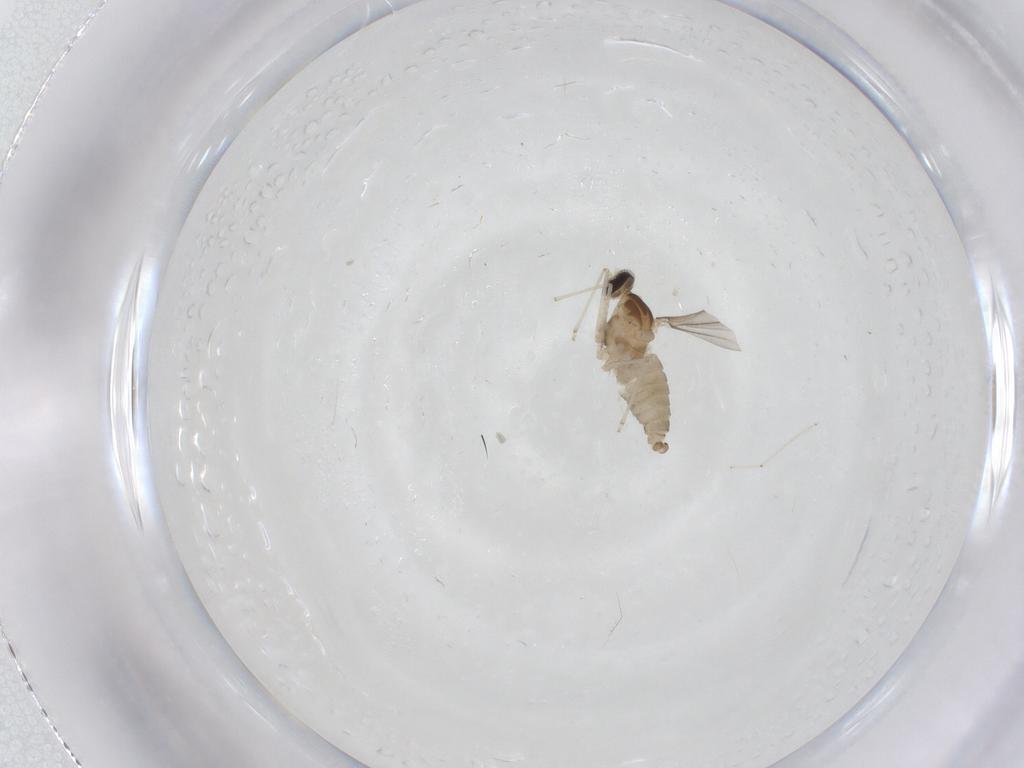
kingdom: Animalia
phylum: Arthropoda
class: Insecta
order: Diptera
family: Cecidomyiidae
